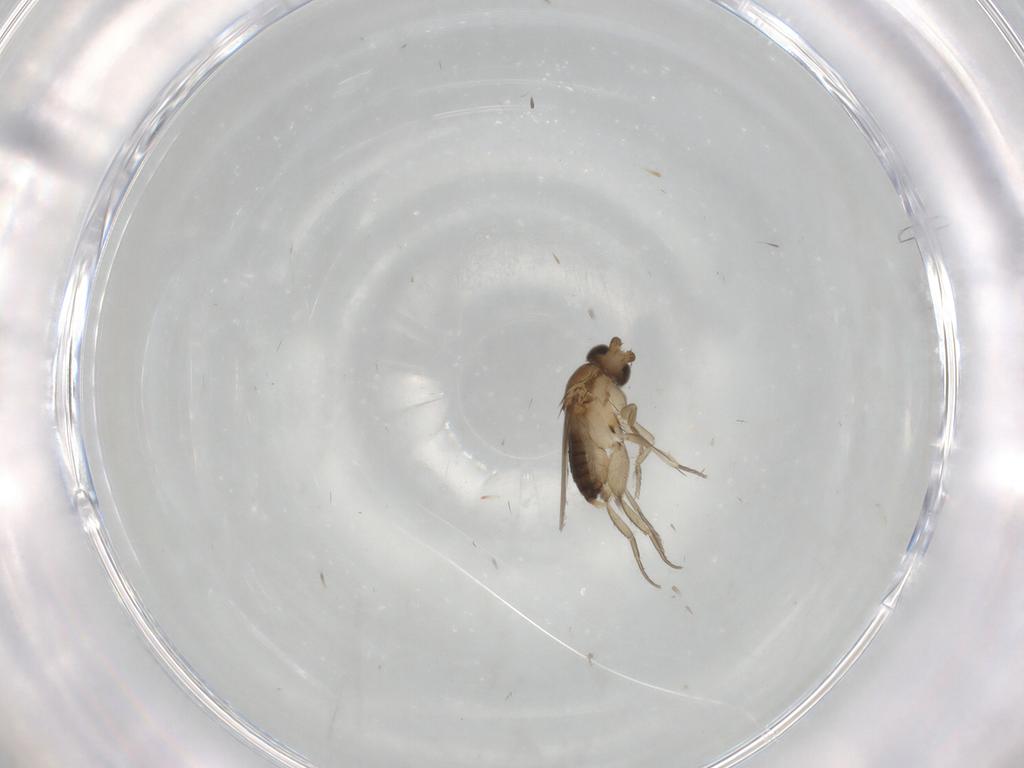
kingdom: Animalia
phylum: Arthropoda
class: Insecta
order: Diptera
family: Phoridae
